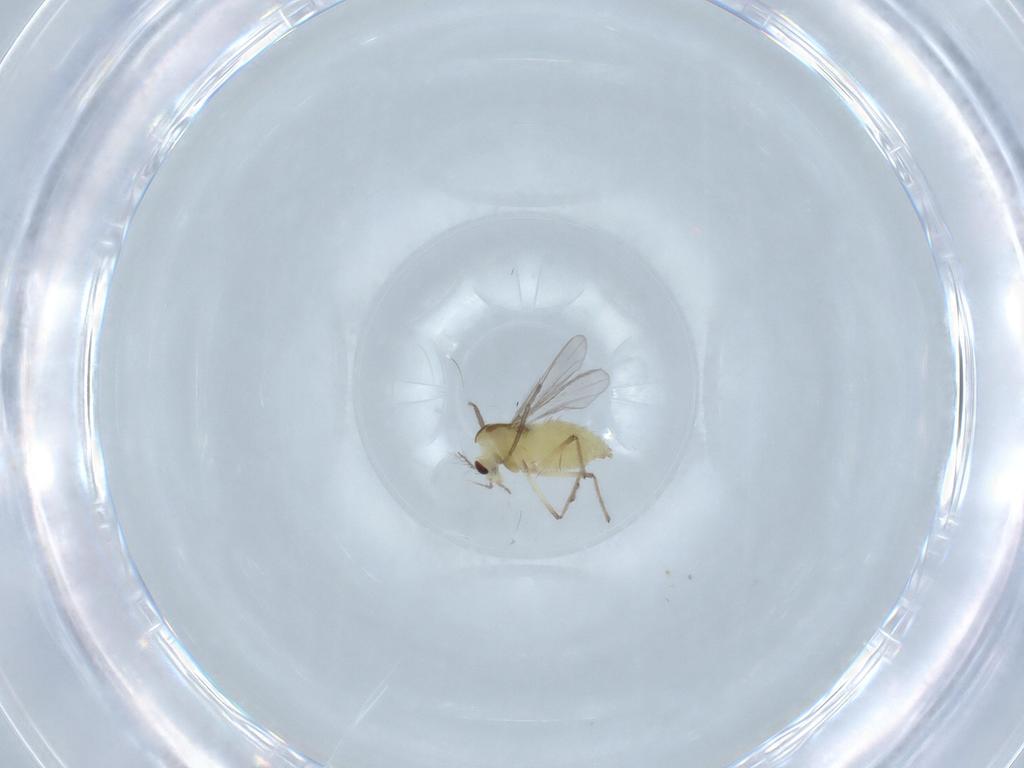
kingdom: Animalia
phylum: Arthropoda
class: Insecta
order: Diptera
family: Chironomidae
